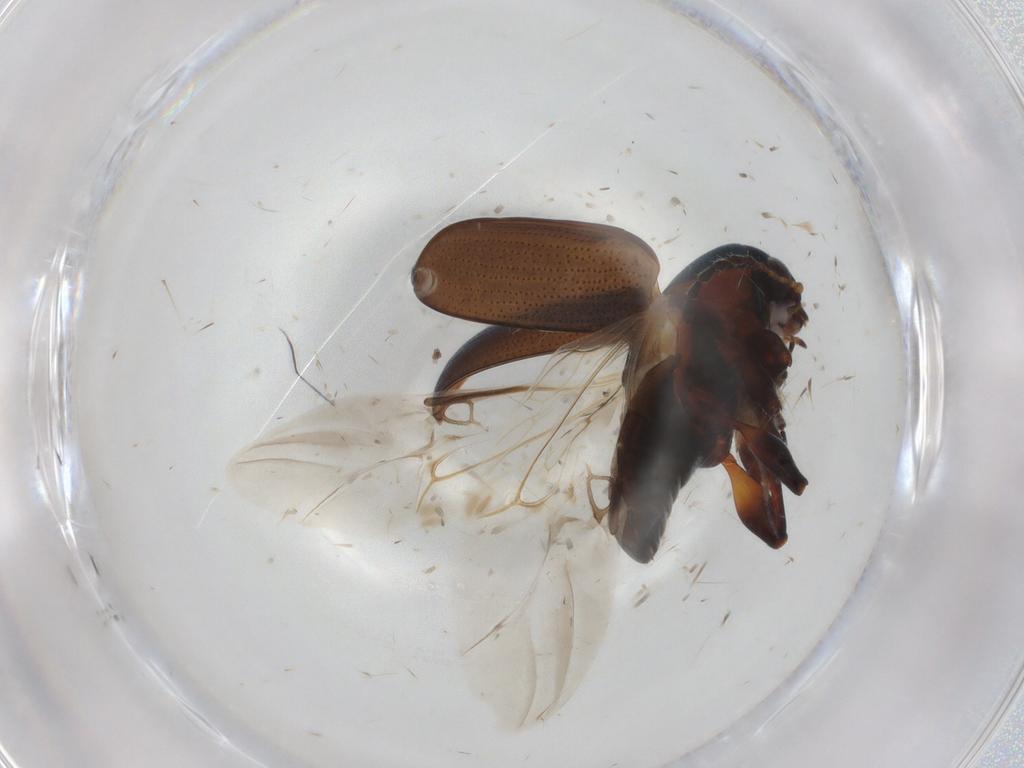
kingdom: Animalia
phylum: Arthropoda
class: Insecta
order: Coleoptera
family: Chrysomelidae
